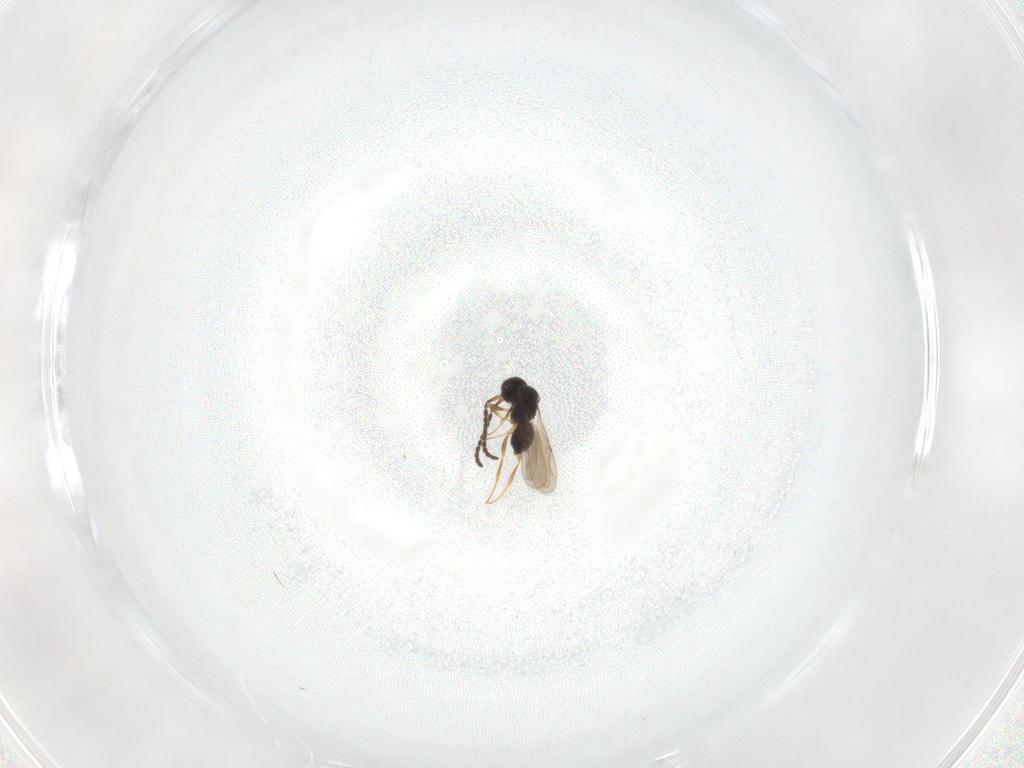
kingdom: Animalia
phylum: Arthropoda
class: Insecta
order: Hymenoptera
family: Ceraphronidae
